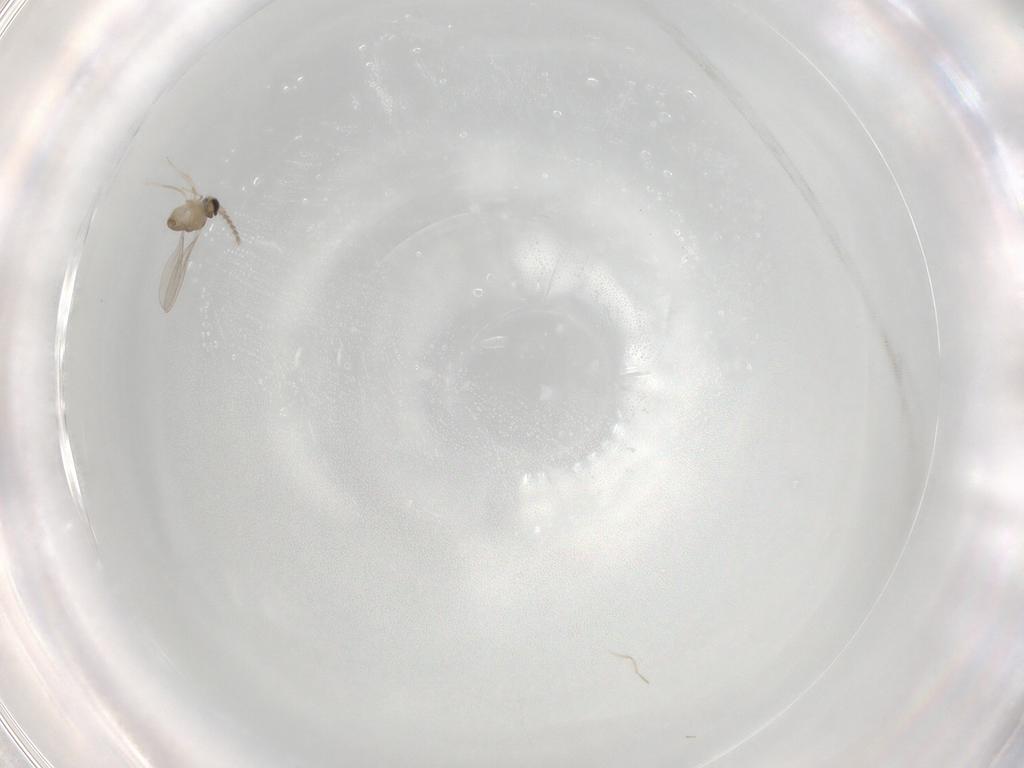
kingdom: Animalia
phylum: Arthropoda
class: Insecta
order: Diptera
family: Cecidomyiidae
